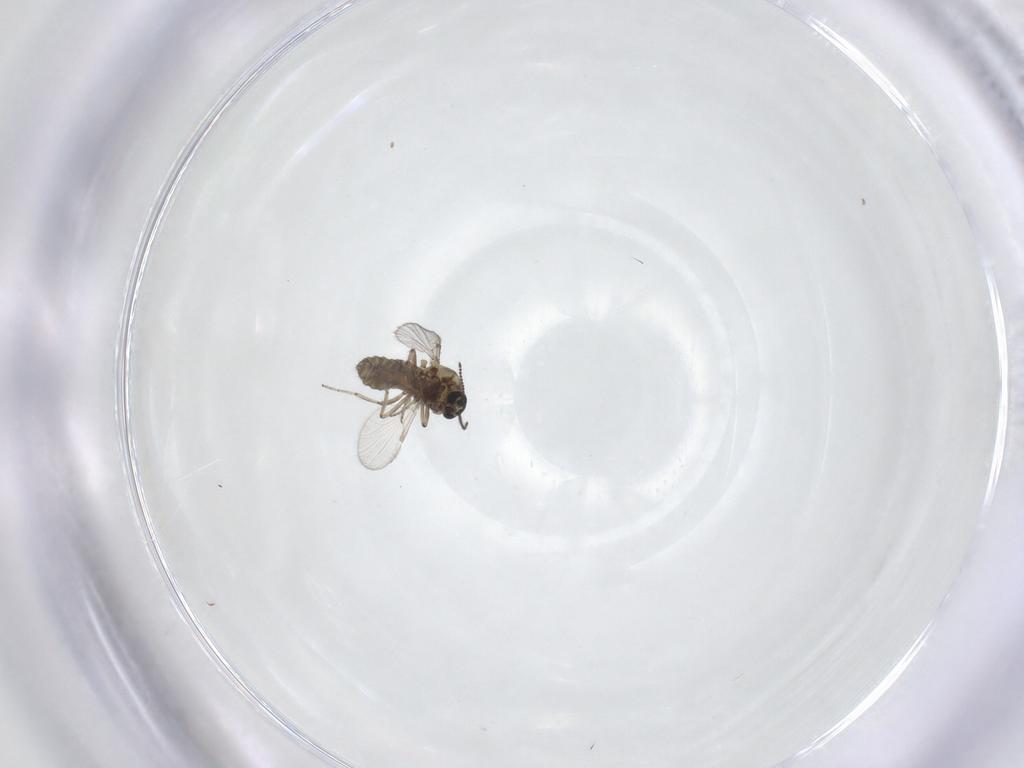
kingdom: Animalia
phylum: Arthropoda
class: Insecta
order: Diptera
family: Ceratopogonidae
